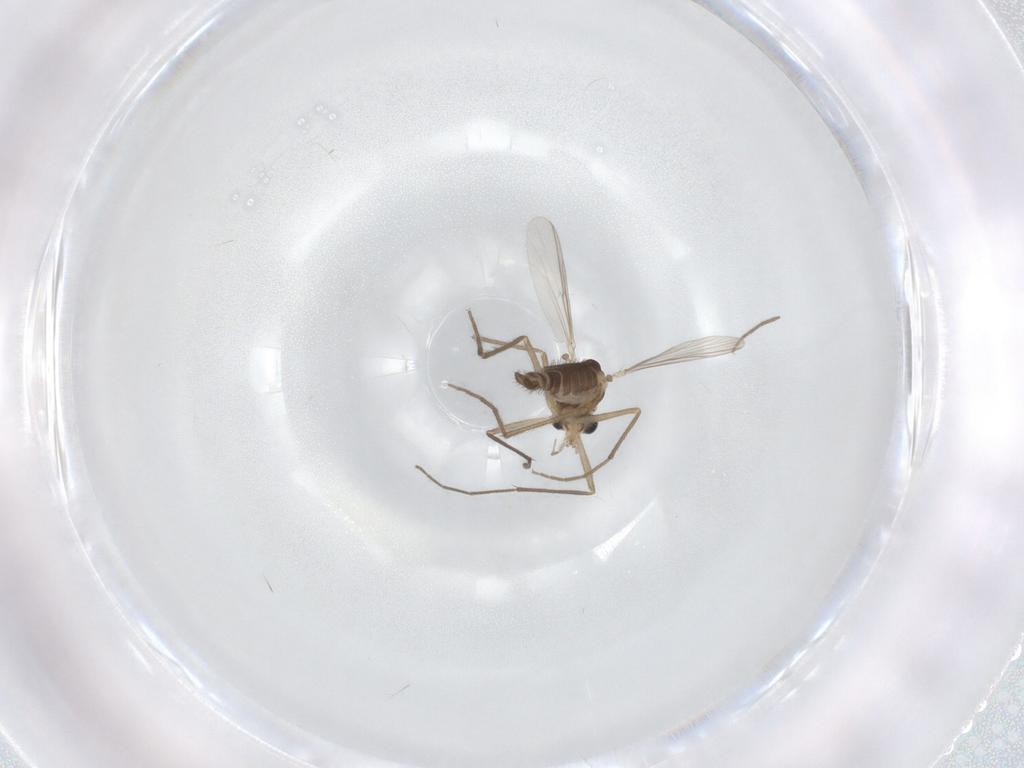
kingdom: Animalia
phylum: Arthropoda
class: Insecta
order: Diptera
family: Chironomidae
